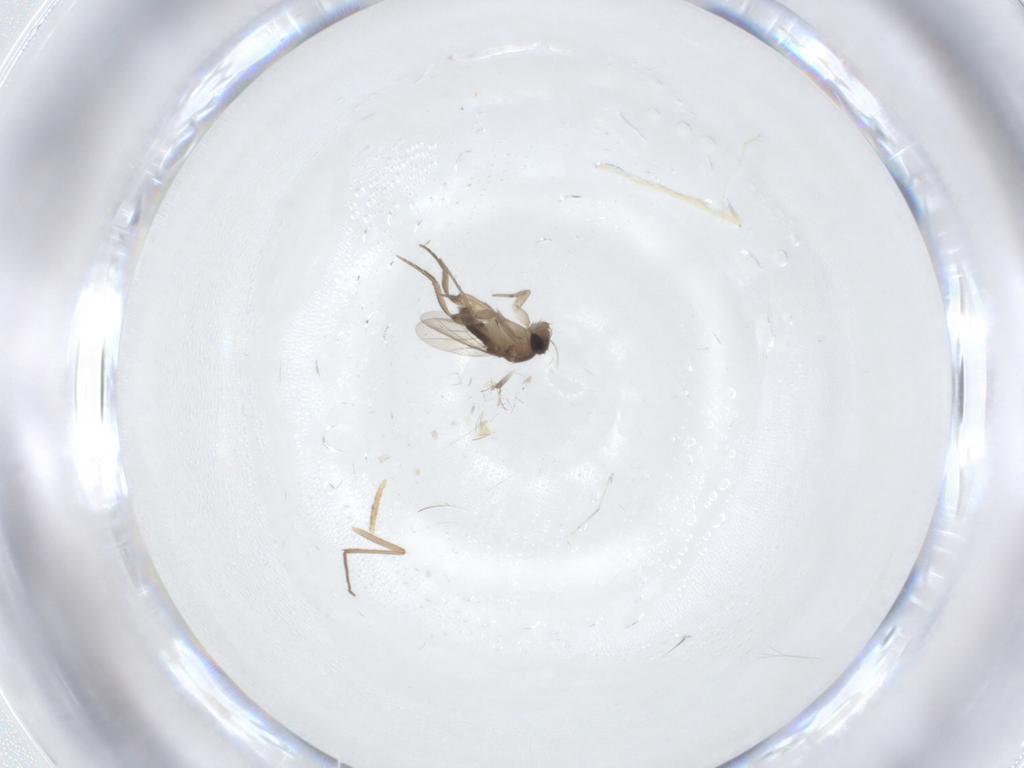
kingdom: Animalia
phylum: Arthropoda
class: Insecta
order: Diptera
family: Phoridae
